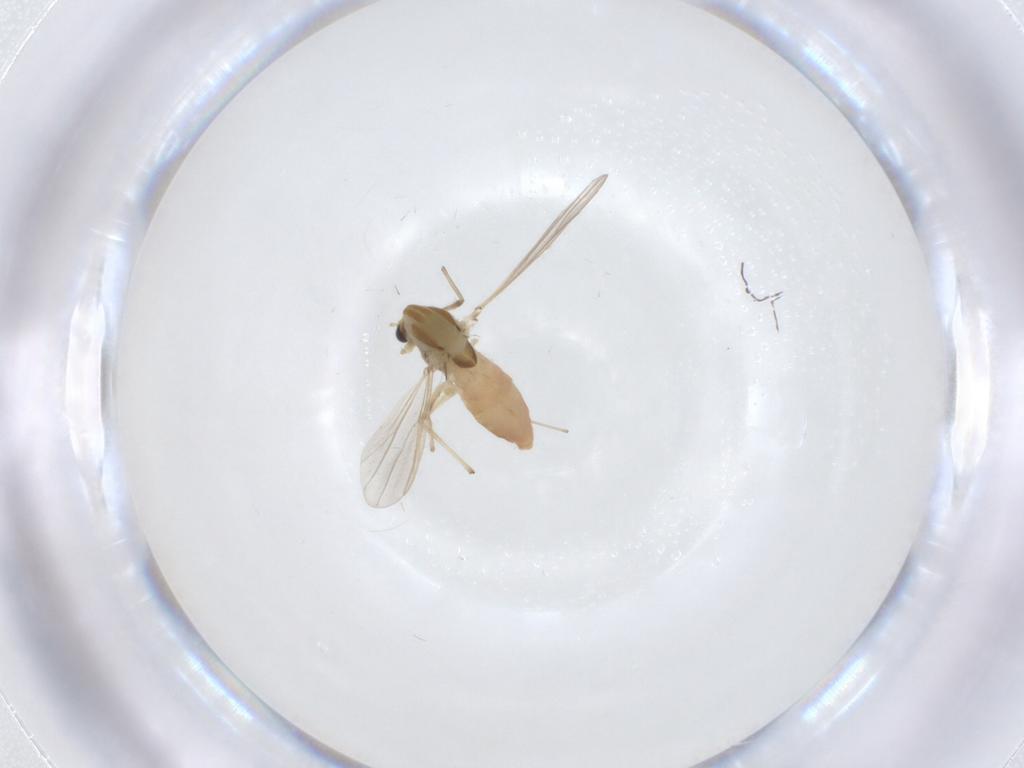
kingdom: Animalia
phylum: Arthropoda
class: Insecta
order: Diptera
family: Chironomidae
